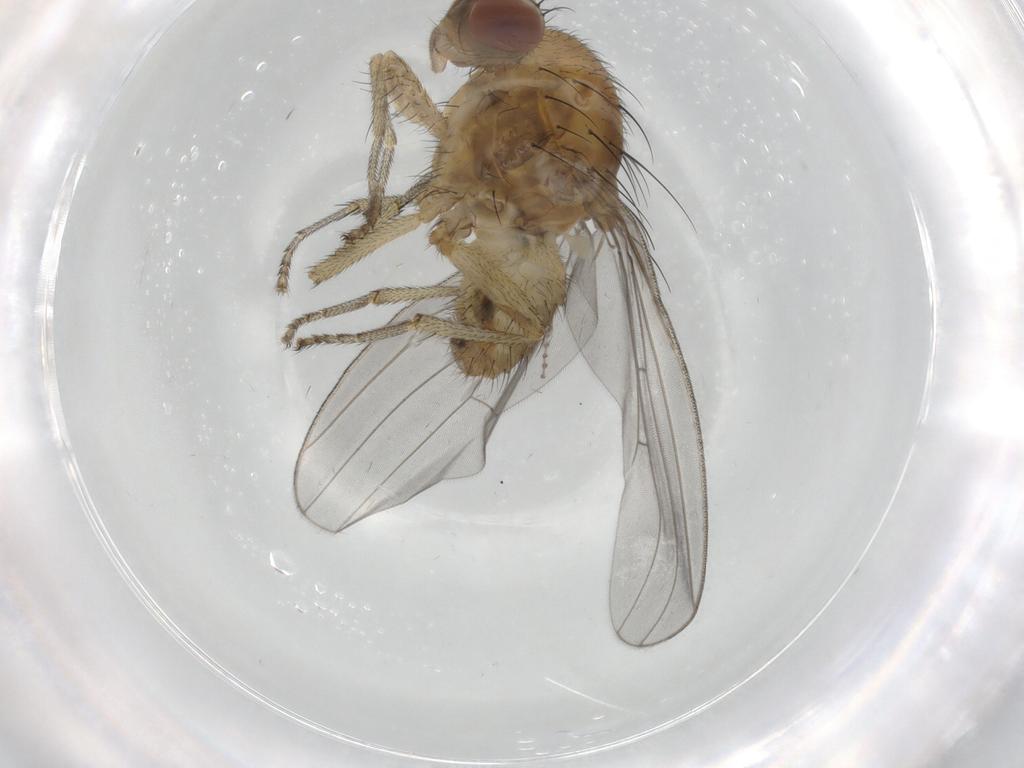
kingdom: Animalia
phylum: Arthropoda
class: Insecta
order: Diptera
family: Lauxaniidae
